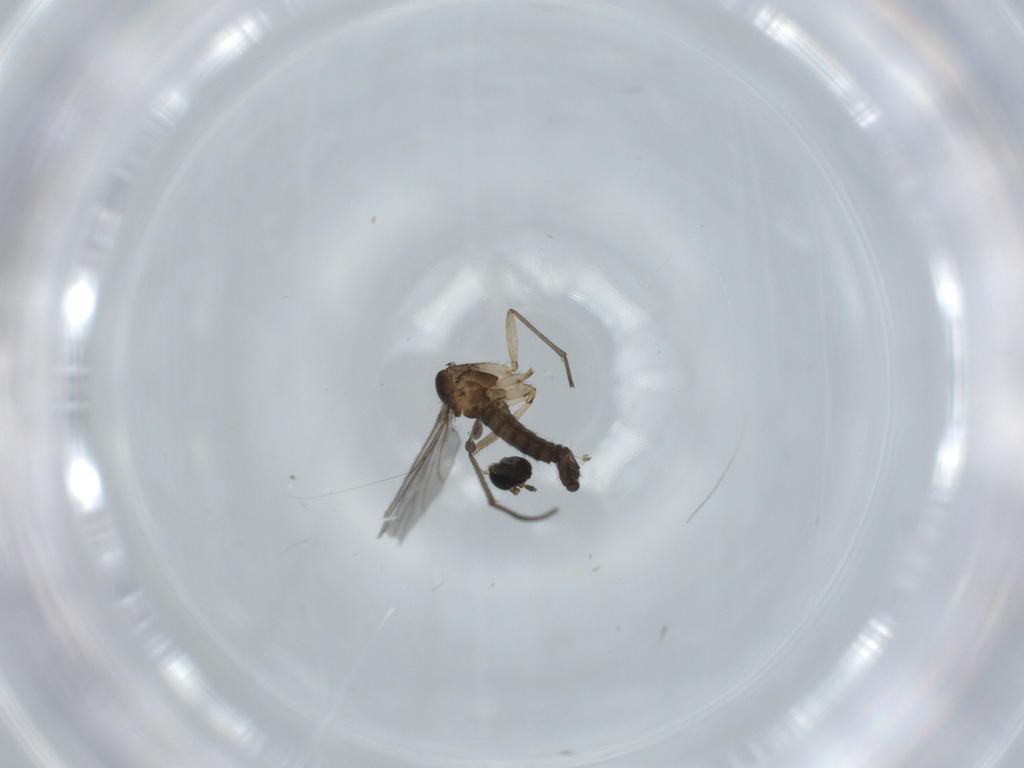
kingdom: Animalia
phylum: Arthropoda
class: Insecta
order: Diptera
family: Sciaridae
